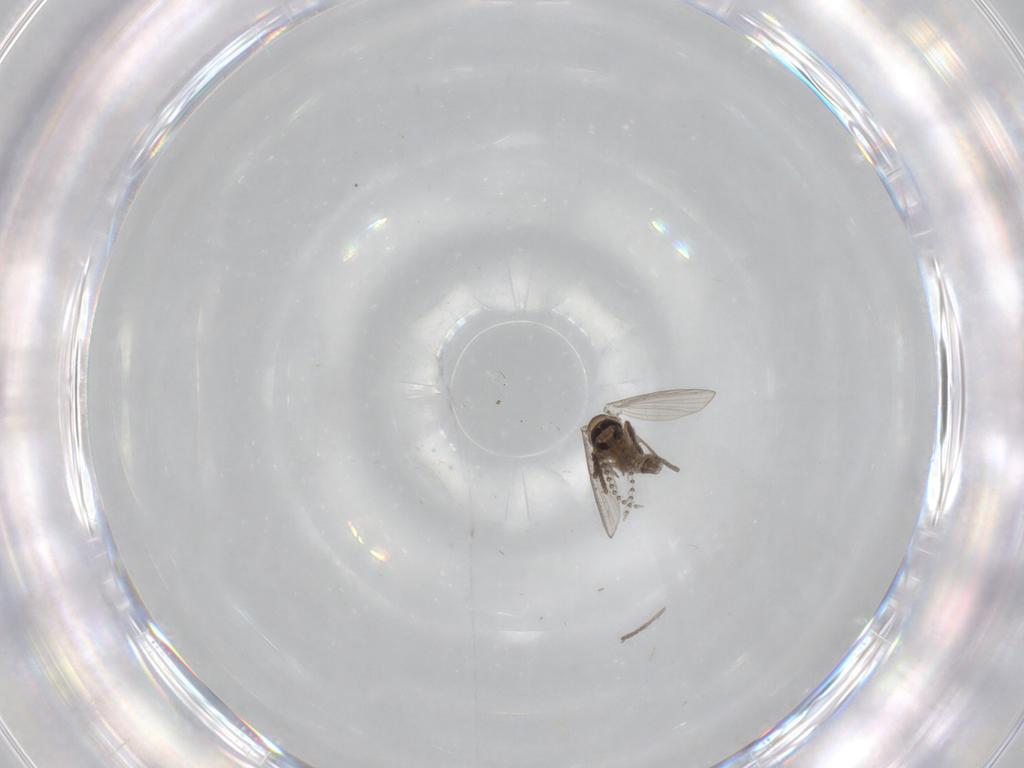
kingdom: Animalia
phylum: Arthropoda
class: Insecta
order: Diptera
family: Psychodidae
